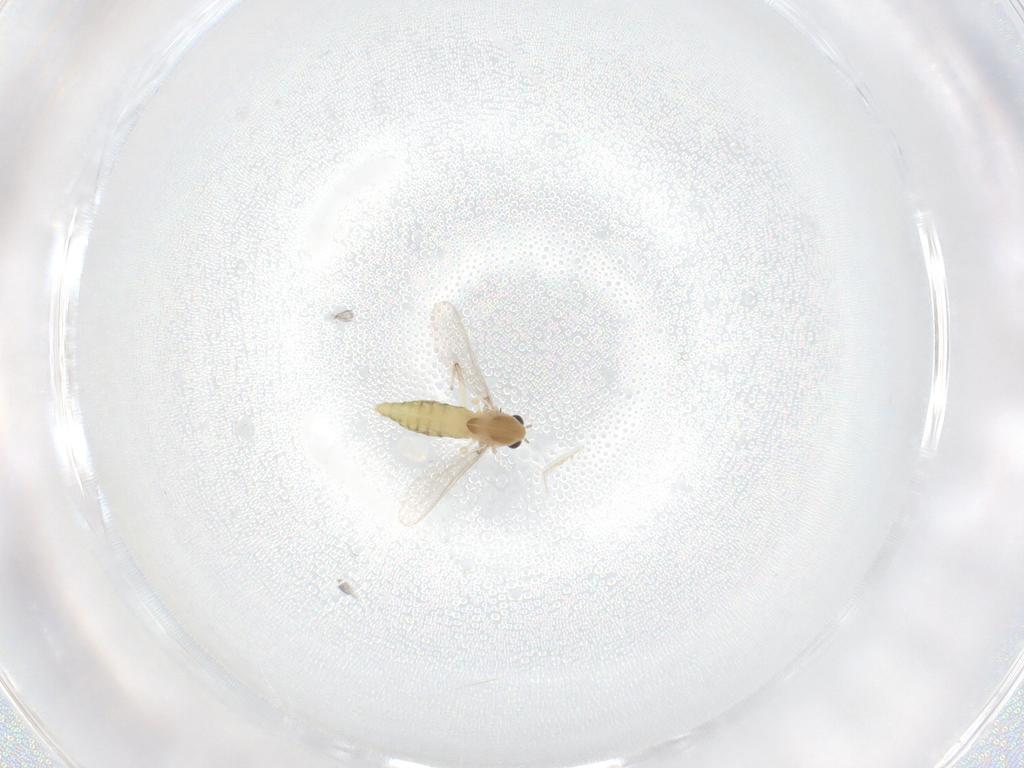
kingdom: Animalia
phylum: Arthropoda
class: Insecta
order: Diptera
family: Chironomidae
